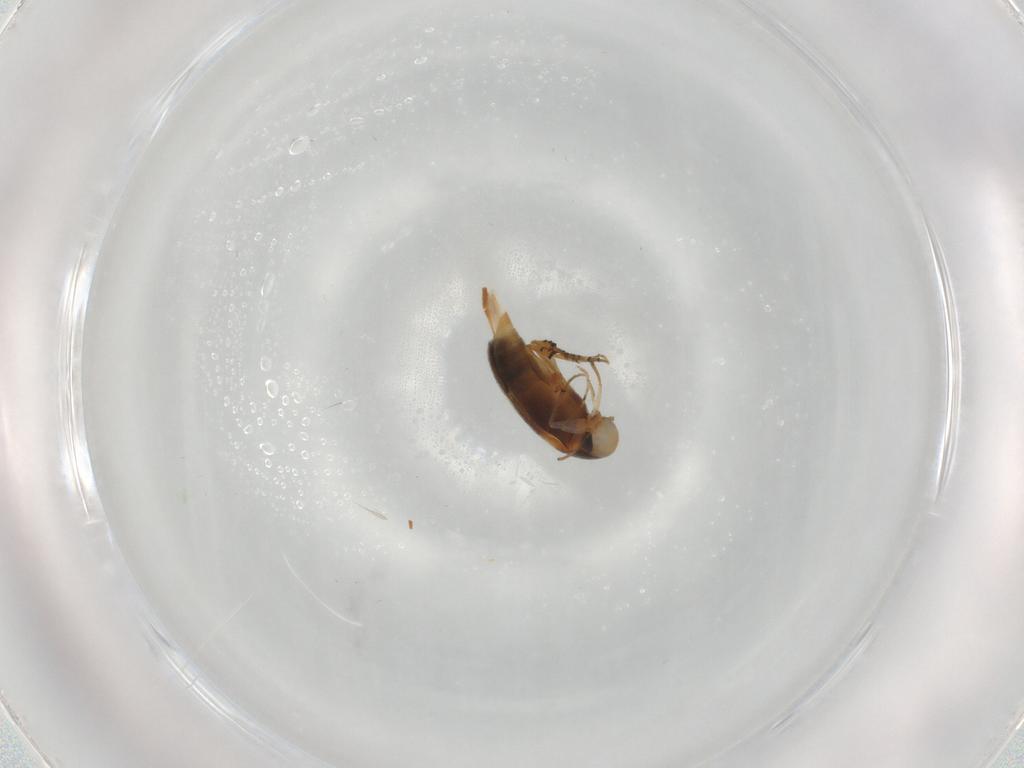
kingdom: Animalia
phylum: Arthropoda
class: Insecta
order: Coleoptera
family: Mordellidae
